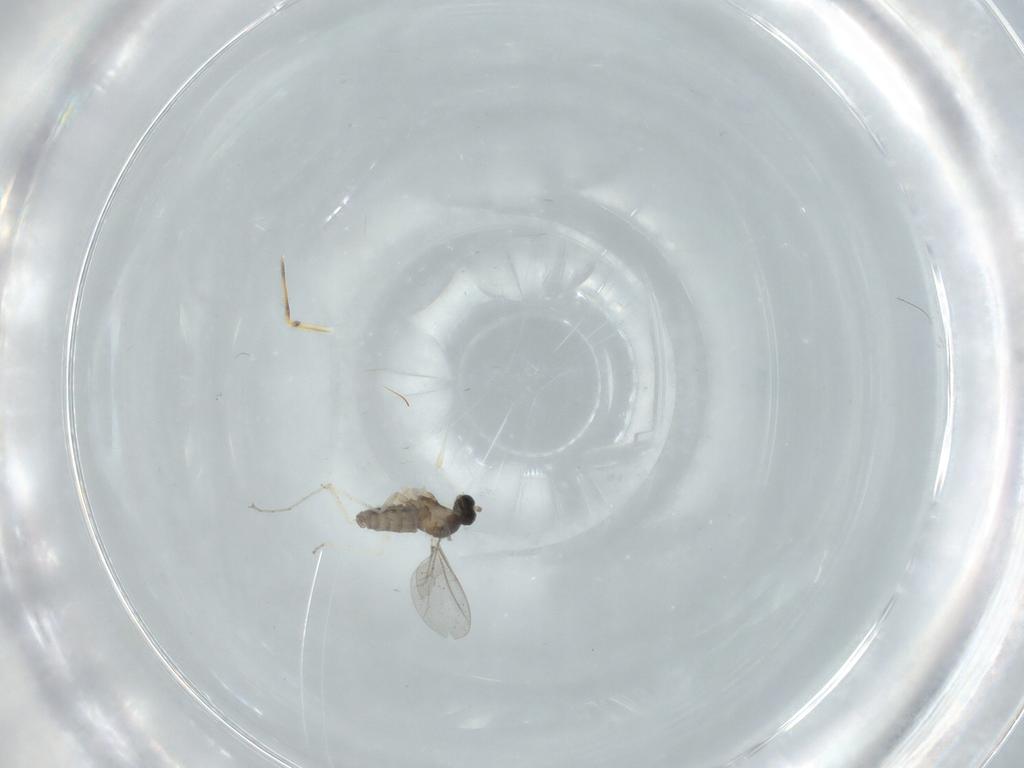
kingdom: Animalia
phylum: Arthropoda
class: Insecta
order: Diptera
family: Cecidomyiidae
